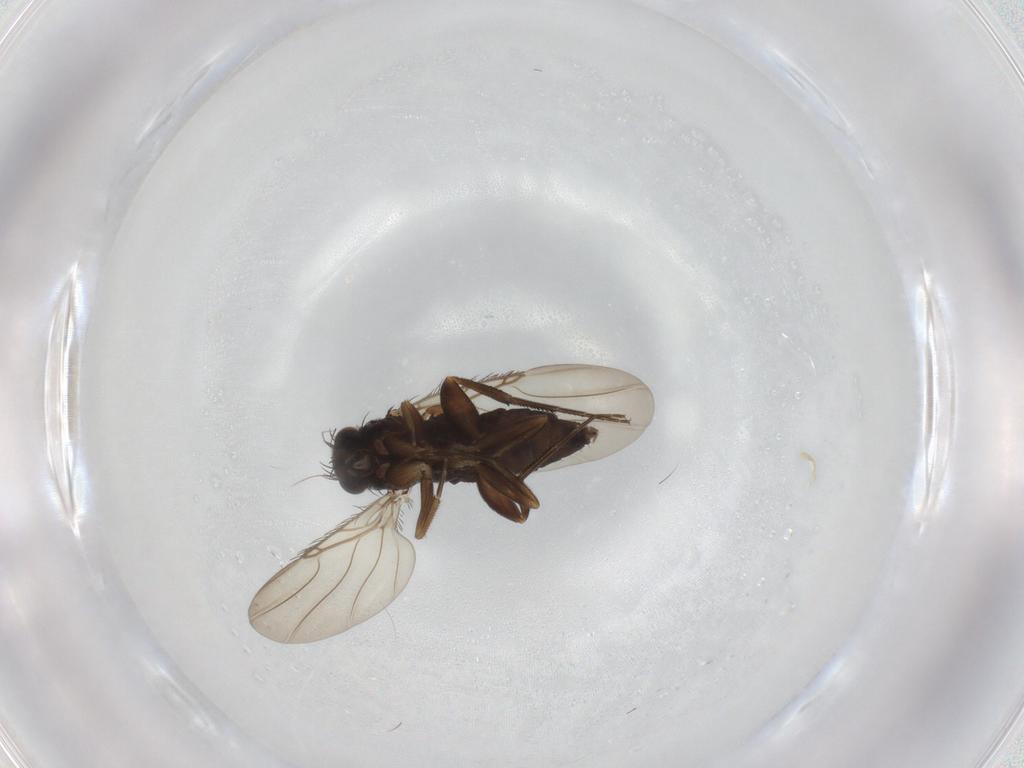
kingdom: Animalia
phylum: Arthropoda
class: Insecta
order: Diptera
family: Phoridae
